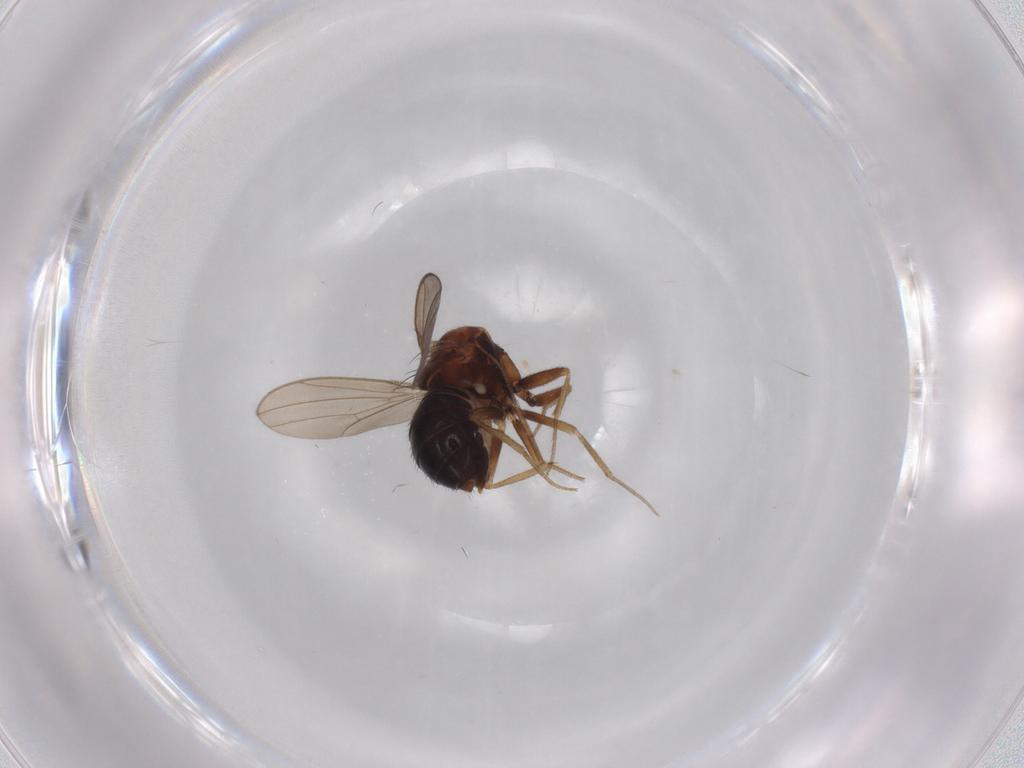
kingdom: Animalia
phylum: Arthropoda
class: Insecta
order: Diptera
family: Drosophilidae
